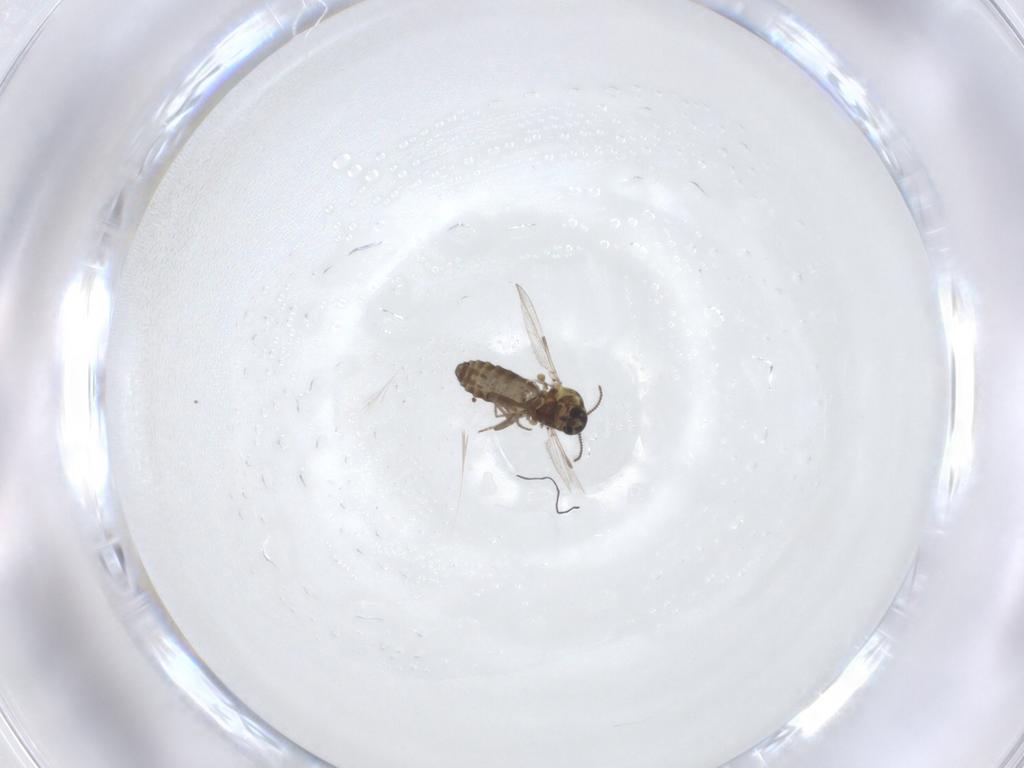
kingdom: Animalia
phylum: Arthropoda
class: Insecta
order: Diptera
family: Ceratopogonidae
